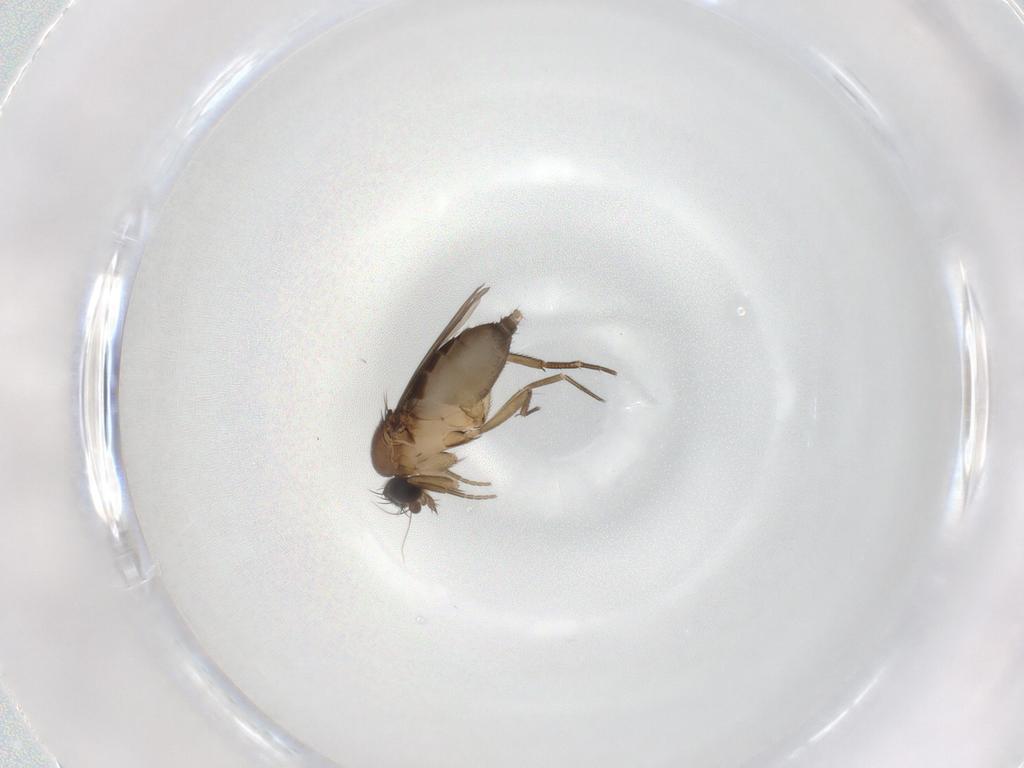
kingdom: Animalia
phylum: Arthropoda
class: Insecta
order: Diptera
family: Phoridae
